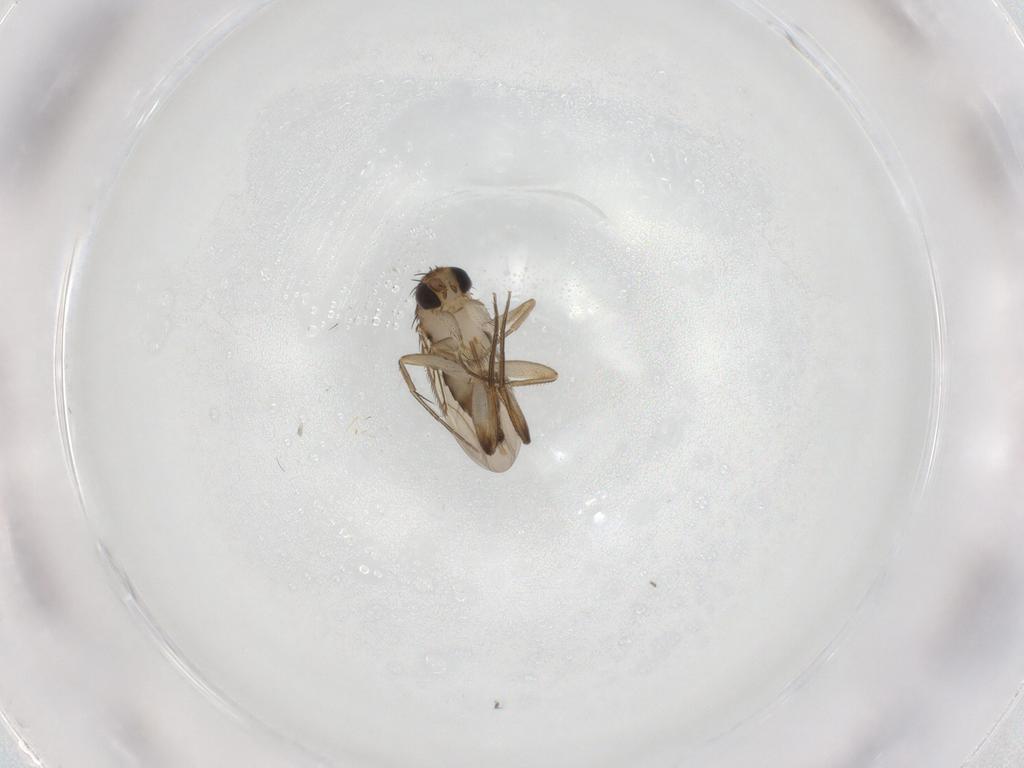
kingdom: Animalia
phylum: Arthropoda
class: Insecta
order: Diptera
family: Phoridae
